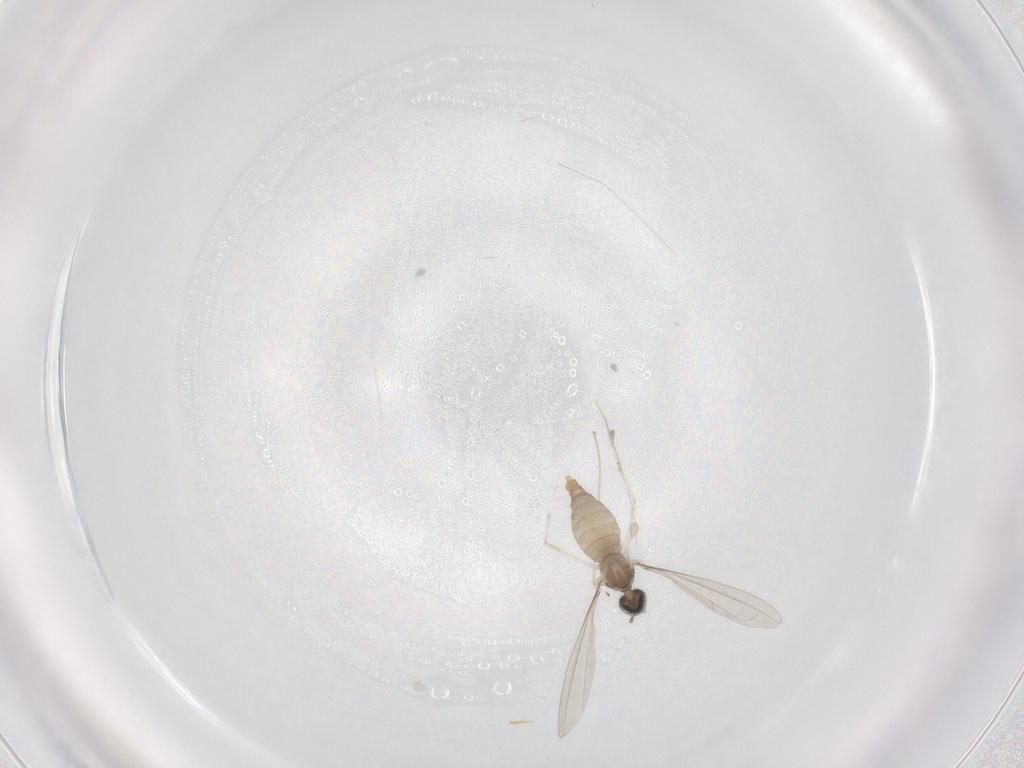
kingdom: Animalia
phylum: Arthropoda
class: Insecta
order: Diptera
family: Cecidomyiidae
